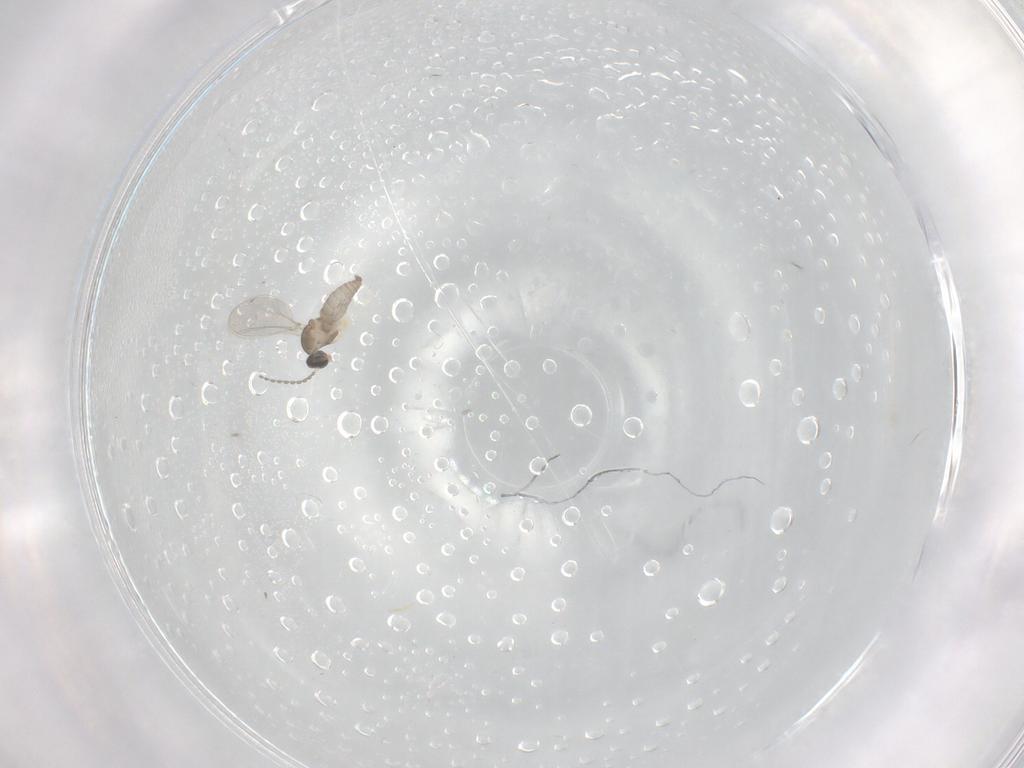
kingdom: Animalia
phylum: Arthropoda
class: Insecta
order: Diptera
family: Cecidomyiidae
